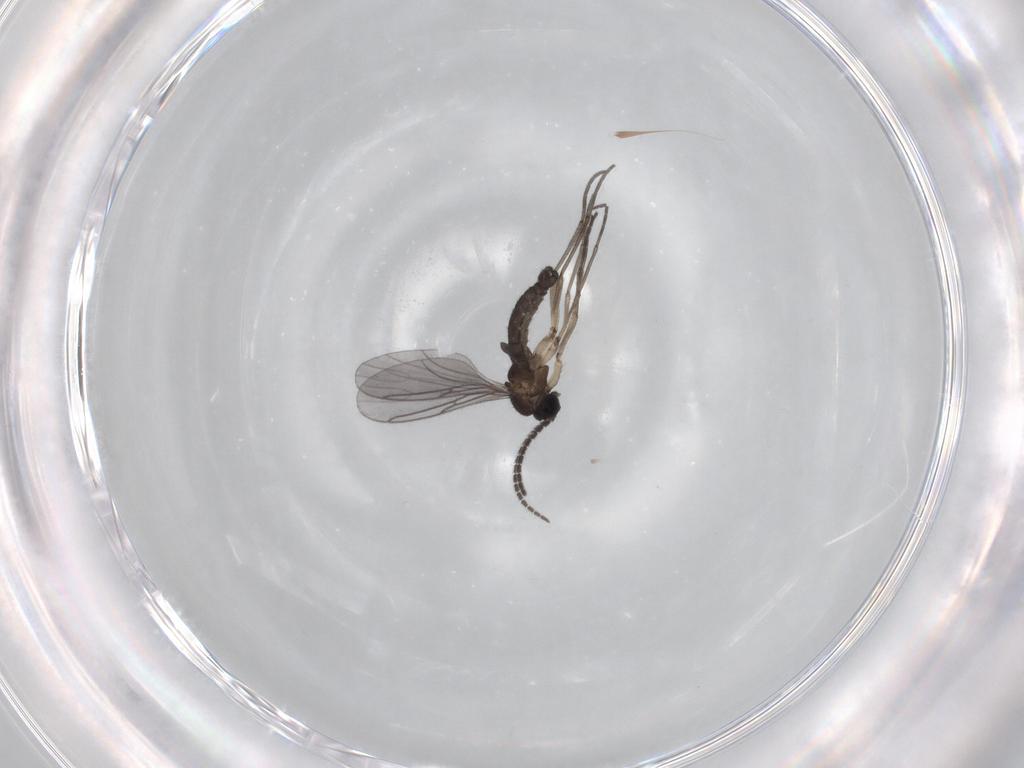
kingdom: Animalia
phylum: Arthropoda
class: Insecta
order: Diptera
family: Sciaridae
